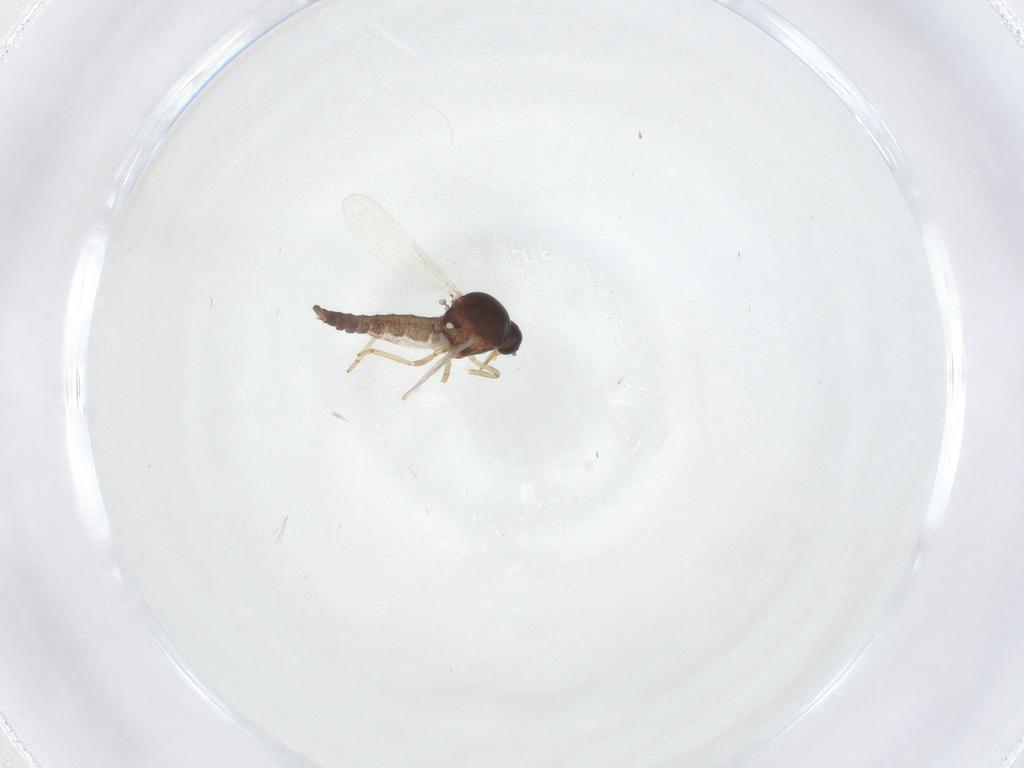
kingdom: Animalia
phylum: Arthropoda
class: Insecta
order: Diptera
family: Ceratopogonidae
